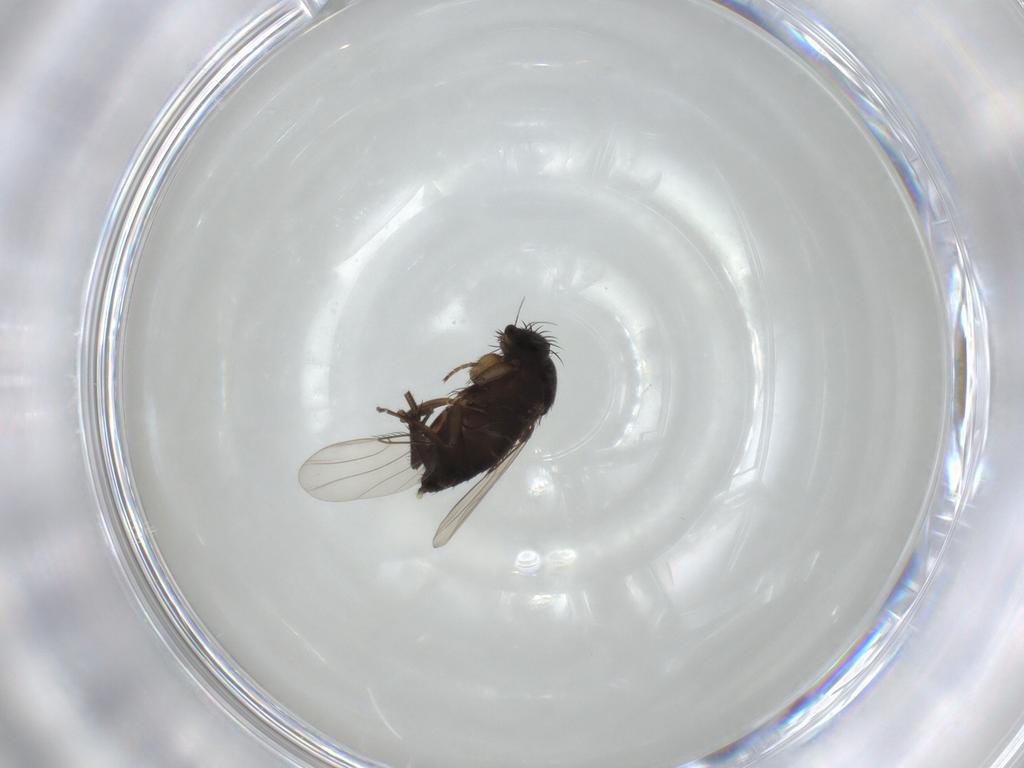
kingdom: Animalia
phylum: Arthropoda
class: Insecta
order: Diptera
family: Phoridae
